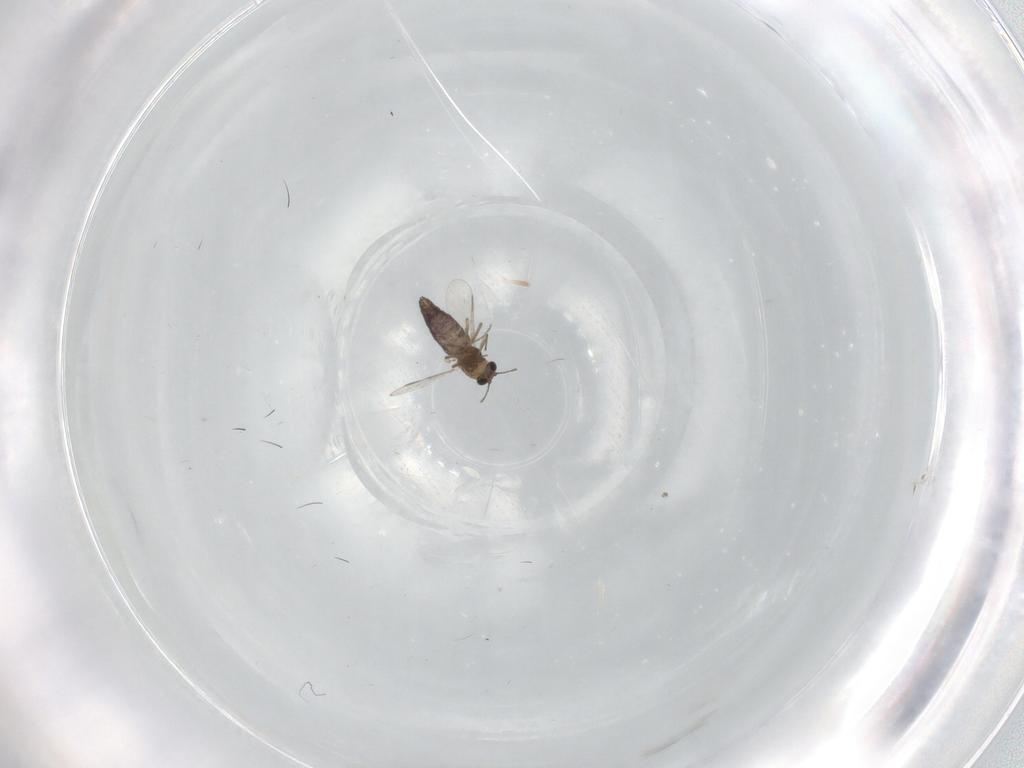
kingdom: Animalia
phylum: Arthropoda
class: Insecta
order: Diptera
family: Chironomidae
